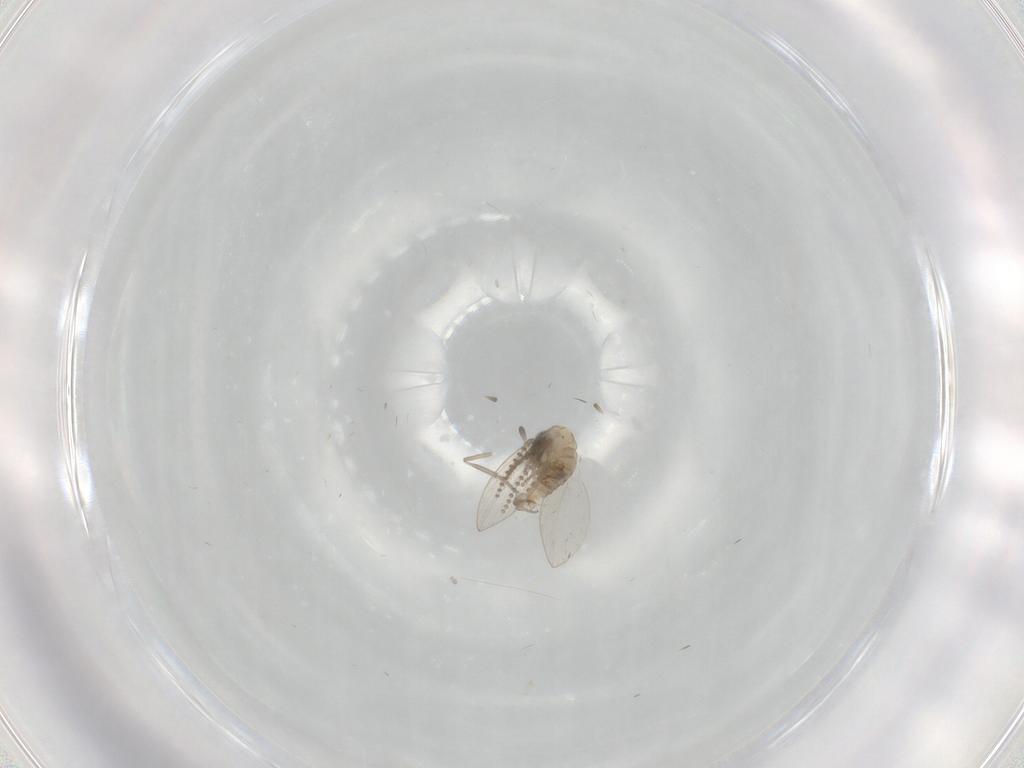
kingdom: Animalia
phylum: Arthropoda
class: Insecta
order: Diptera
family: Psychodidae
